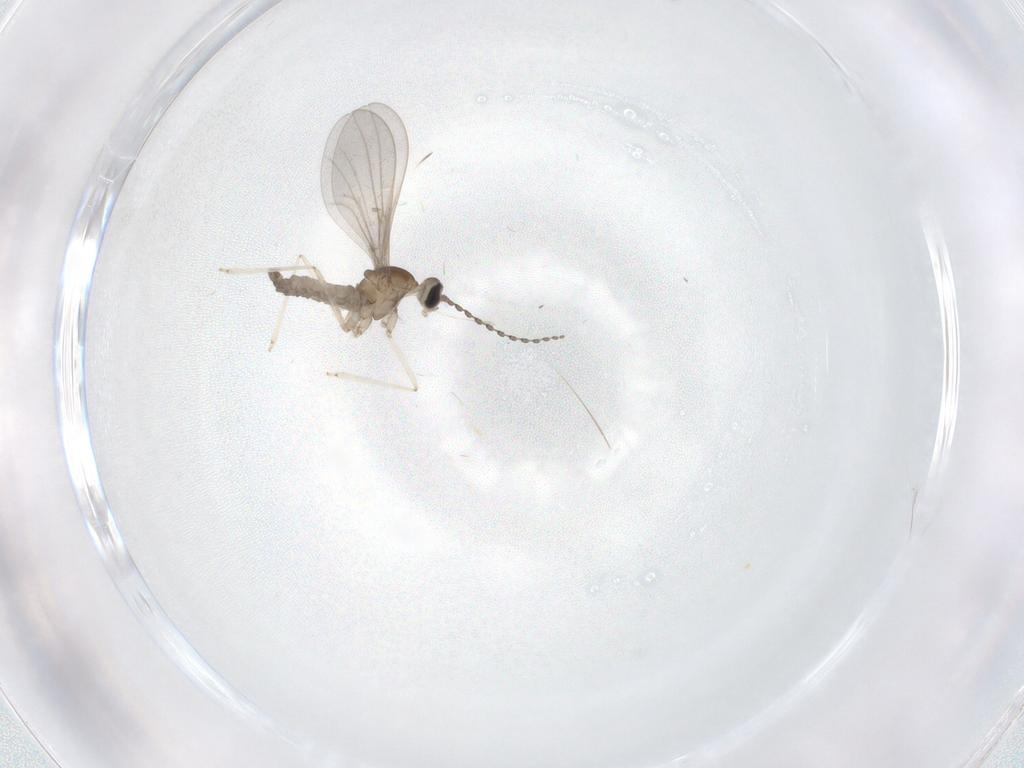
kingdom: Animalia
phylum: Arthropoda
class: Insecta
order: Diptera
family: Cecidomyiidae
